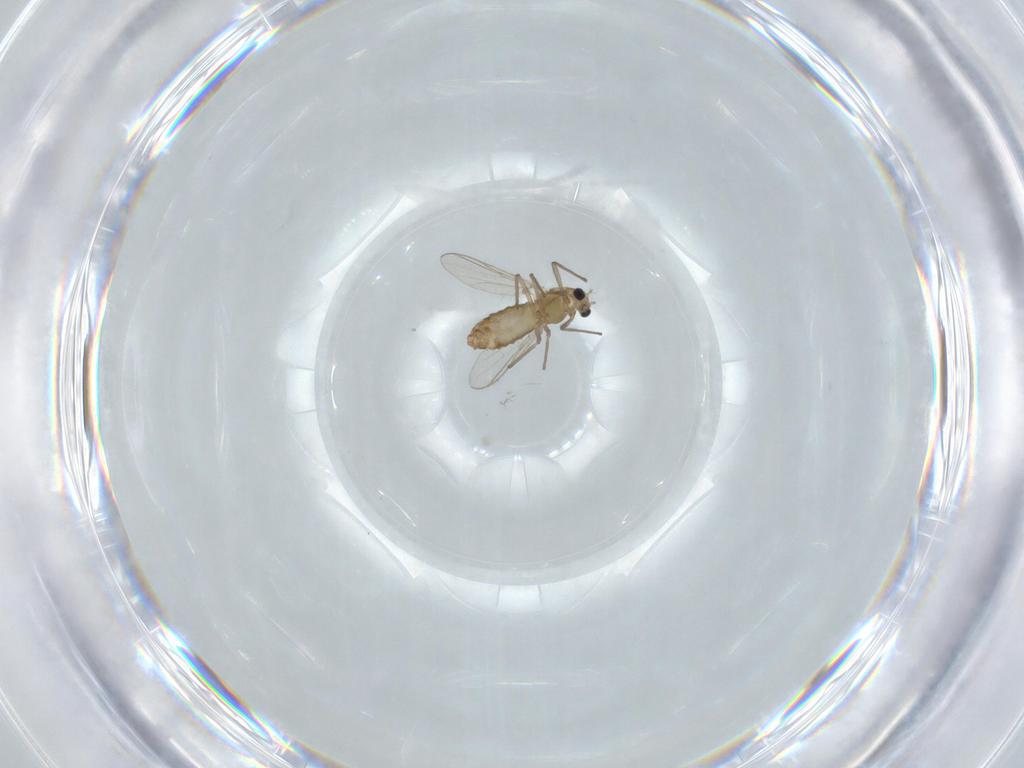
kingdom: Animalia
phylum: Arthropoda
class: Insecta
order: Diptera
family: Chironomidae
